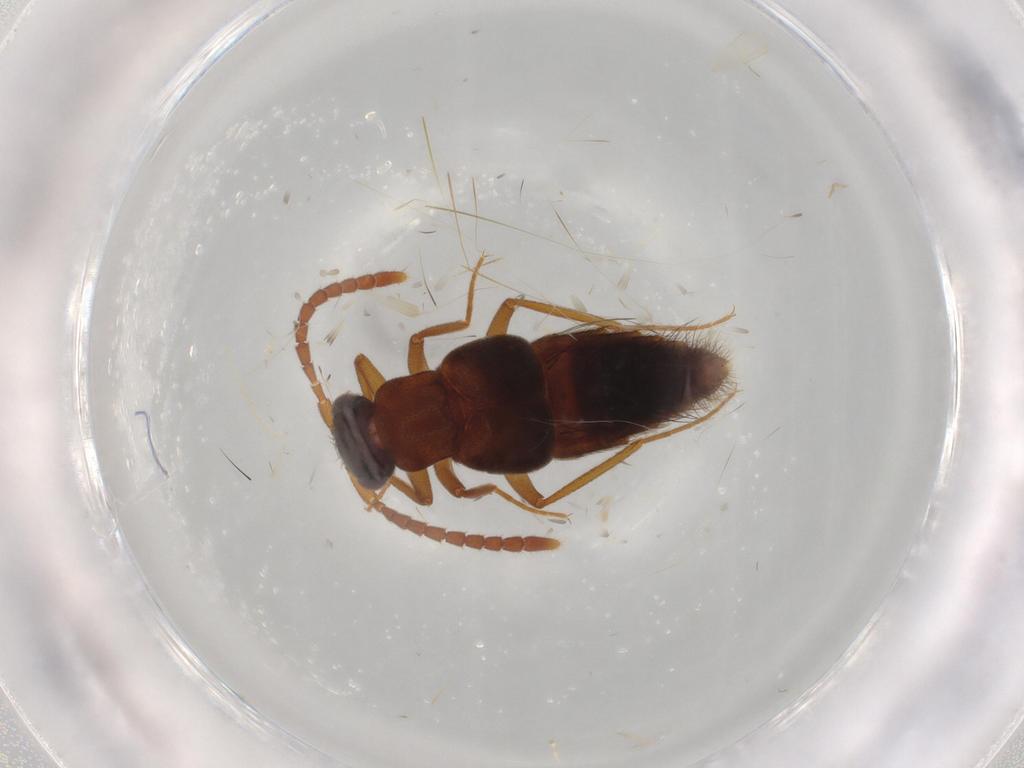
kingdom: Animalia
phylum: Arthropoda
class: Insecta
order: Coleoptera
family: Staphylinidae
